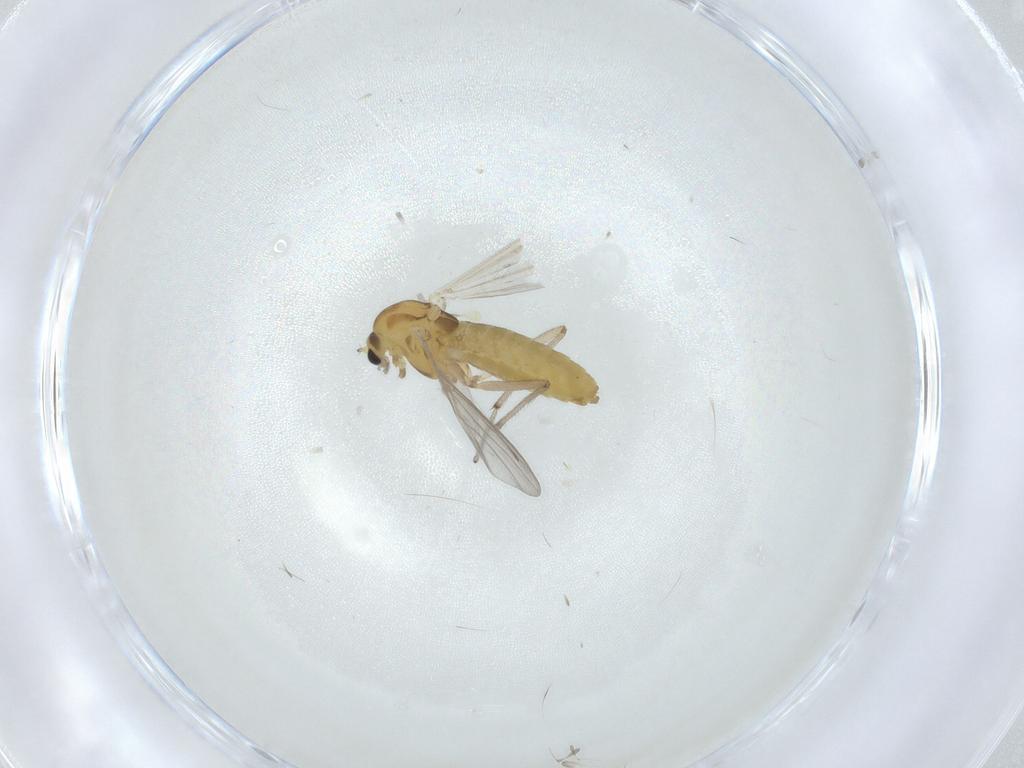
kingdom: Animalia
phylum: Arthropoda
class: Insecta
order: Diptera
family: Chironomidae
